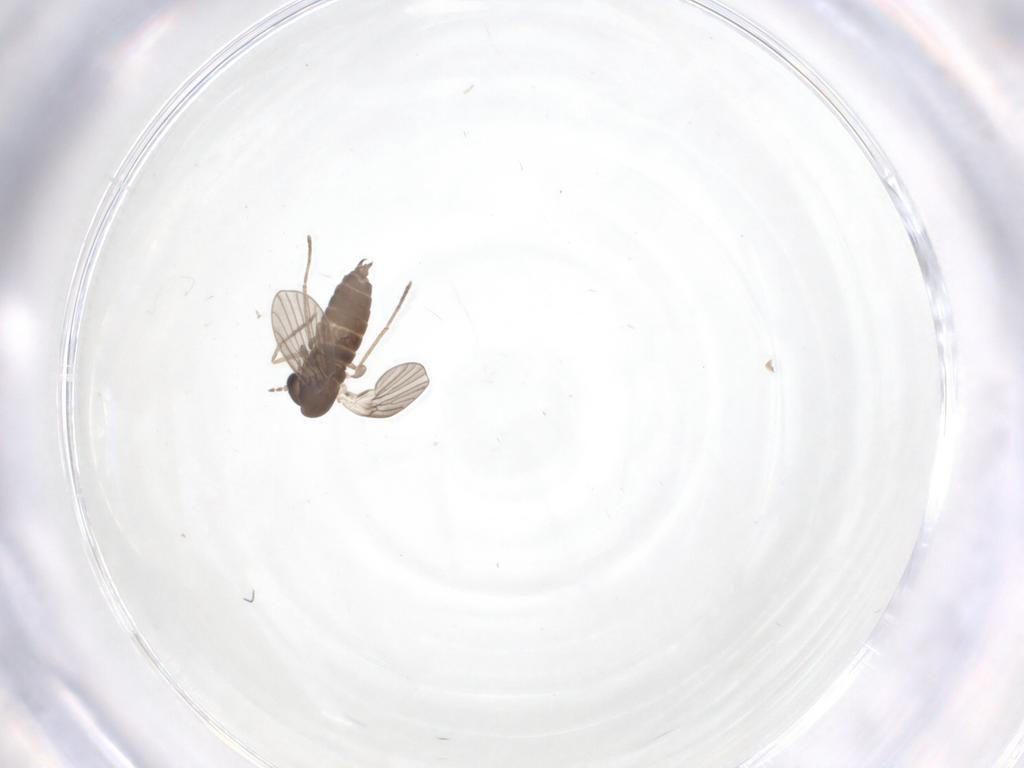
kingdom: Animalia
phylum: Arthropoda
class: Insecta
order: Diptera
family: Limoniidae
